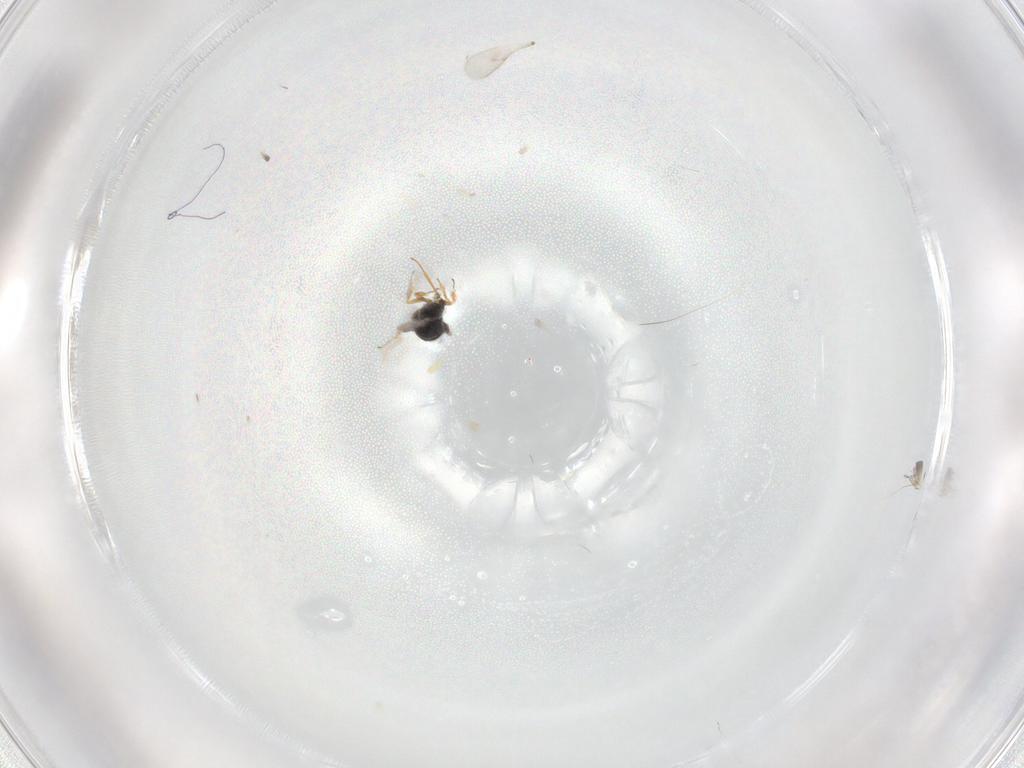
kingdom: Animalia
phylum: Arthropoda
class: Insecta
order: Hymenoptera
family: Scelionidae
